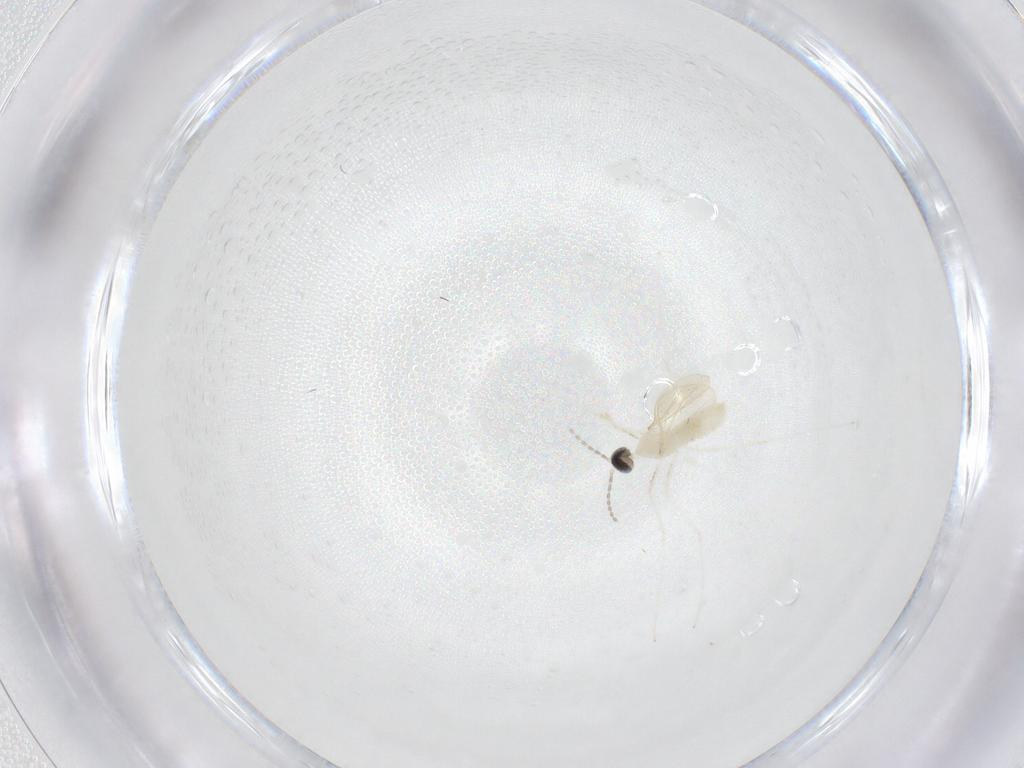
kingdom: Animalia
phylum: Arthropoda
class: Insecta
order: Diptera
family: Cecidomyiidae
